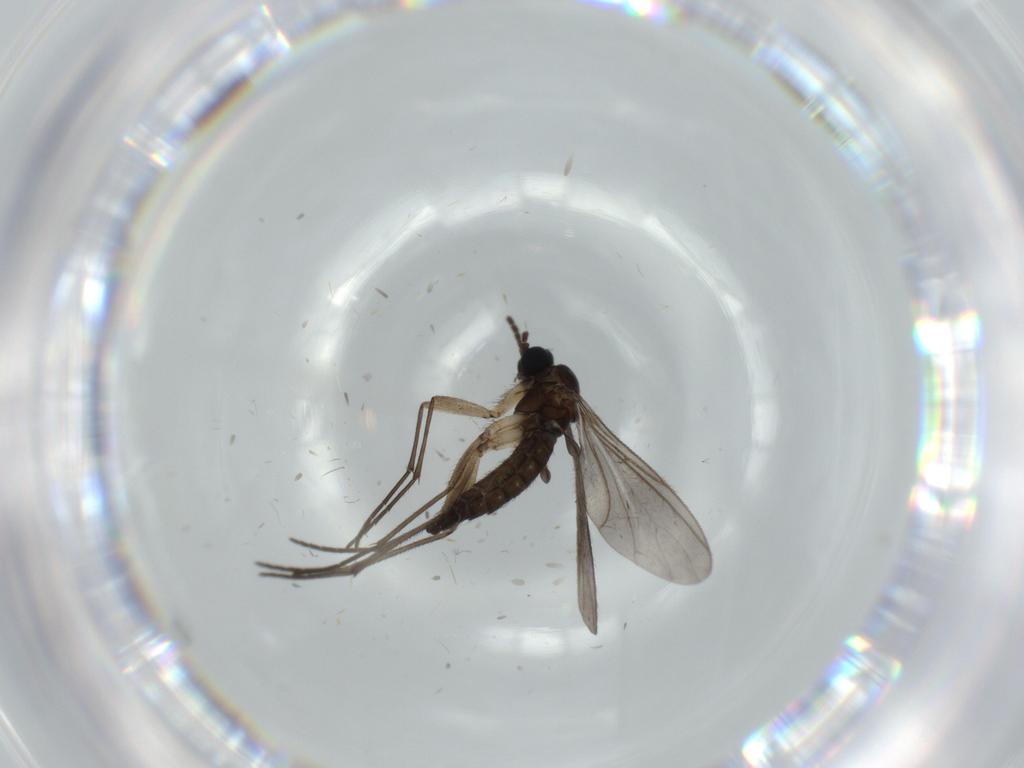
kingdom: Animalia
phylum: Arthropoda
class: Insecta
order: Diptera
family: Sciaridae
